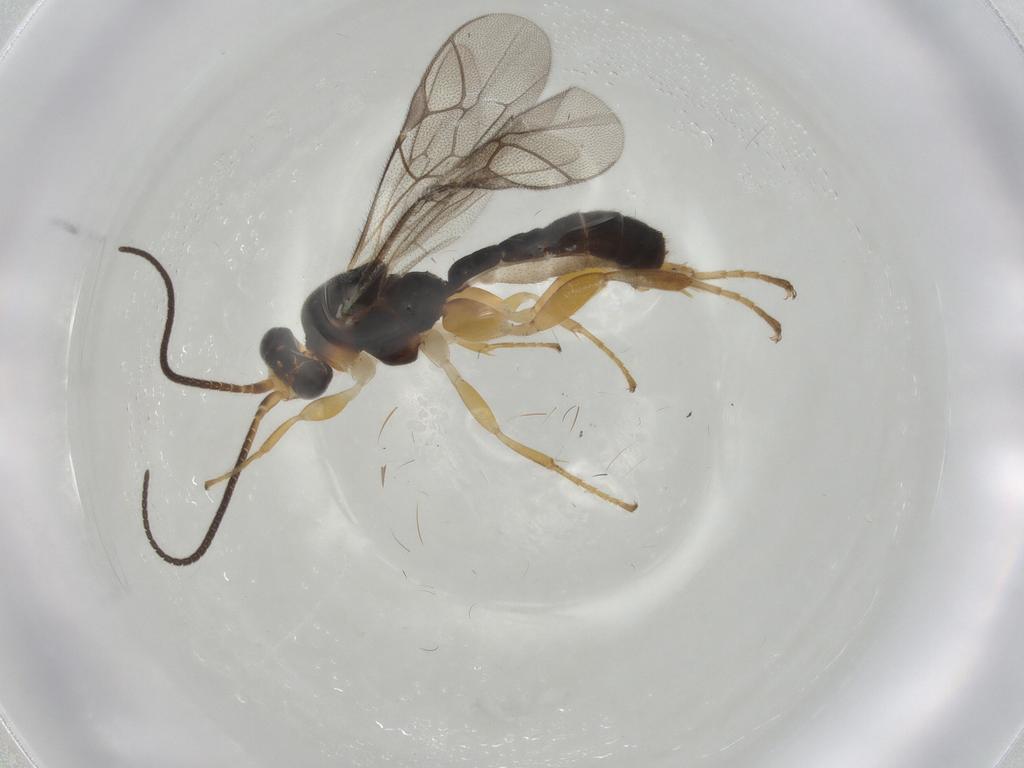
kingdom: Animalia
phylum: Arthropoda
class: Insecta
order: Hymenoptera
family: Ichneumonidae
